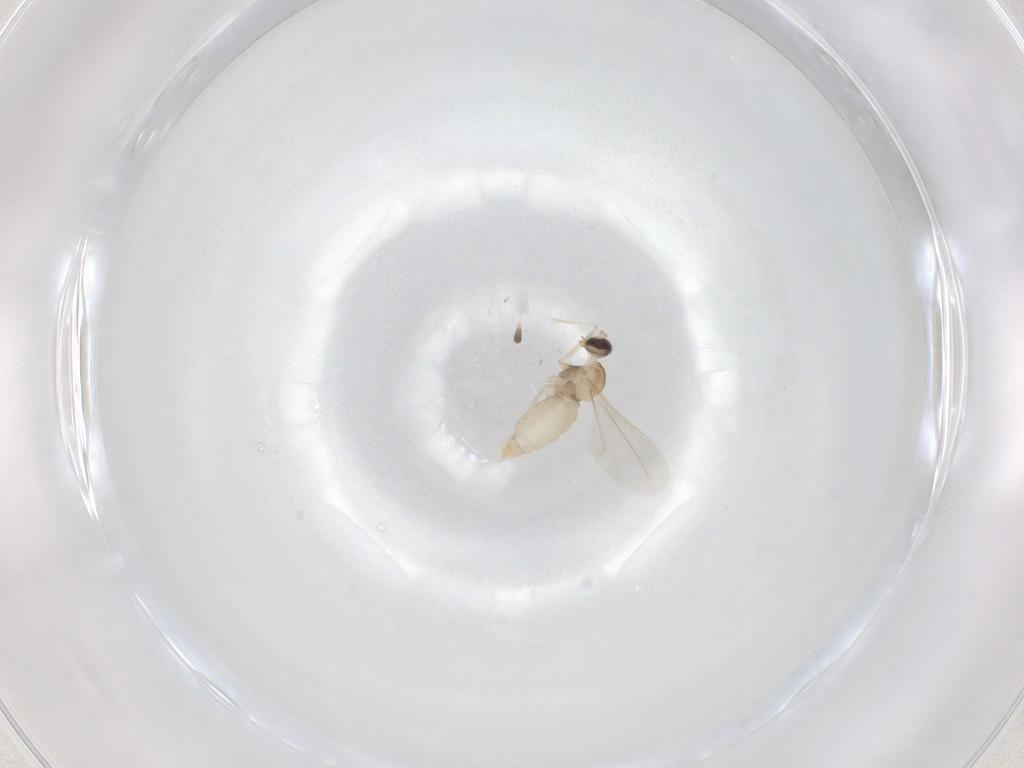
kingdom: Animalia
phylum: Arthropoda
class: Insecta
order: Diptera
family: Cecidomyiidae
